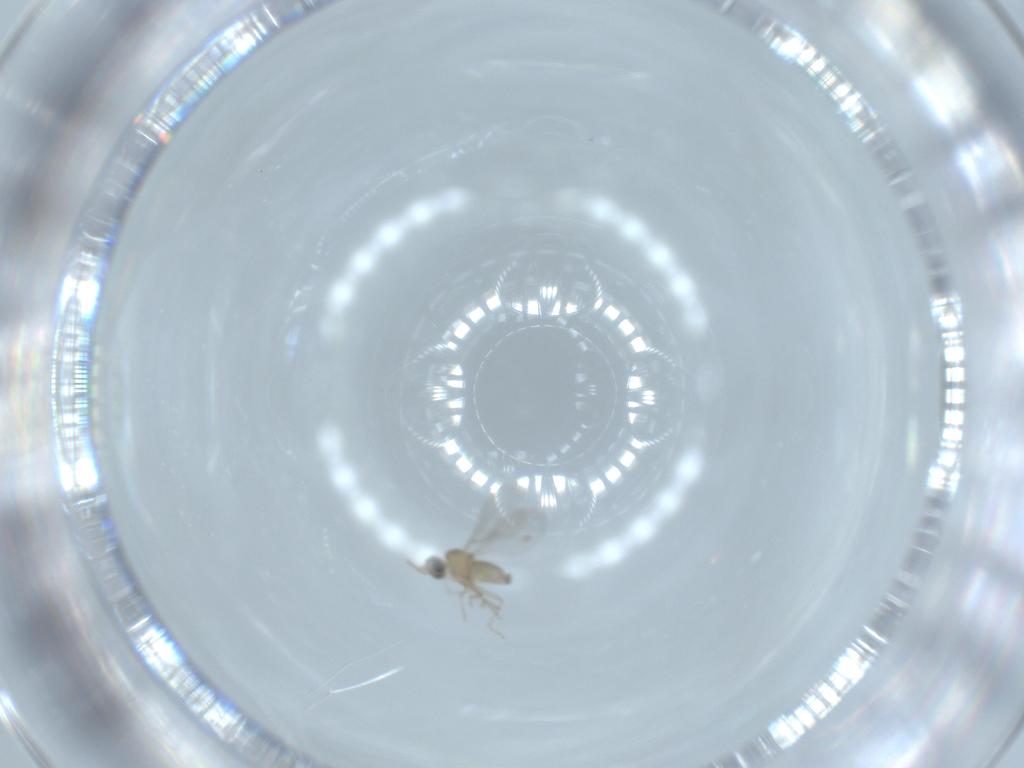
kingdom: Animalia
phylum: Arthropoda
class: Insecta
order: Diptera
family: Cecidomyiidae
